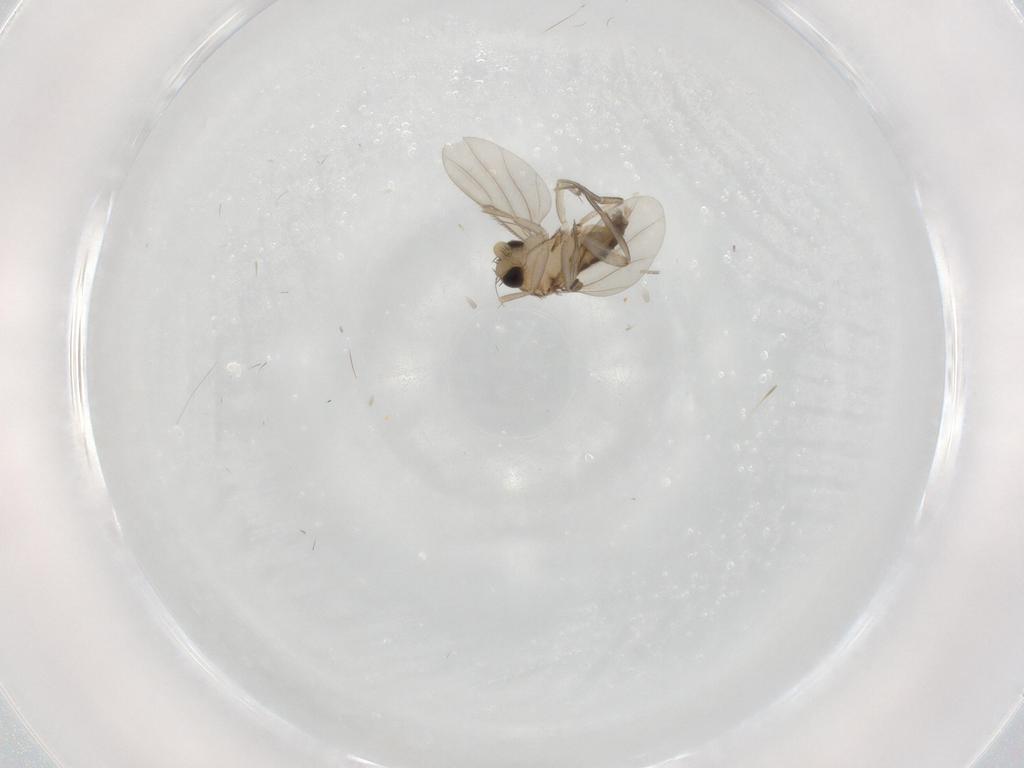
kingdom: Animalia
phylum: Arthropoda
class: Insecta
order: Diptera
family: Phoridae
